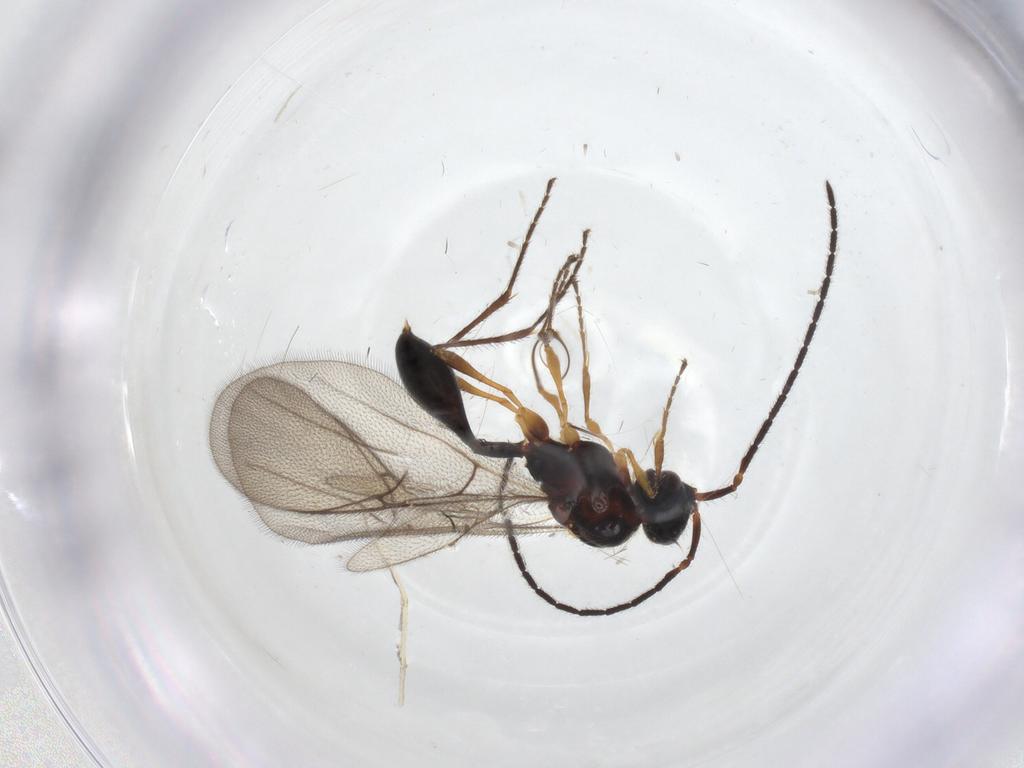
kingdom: Animalia
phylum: Arthropoda
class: Insecta
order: Hymenoptera
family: Diapriidae
